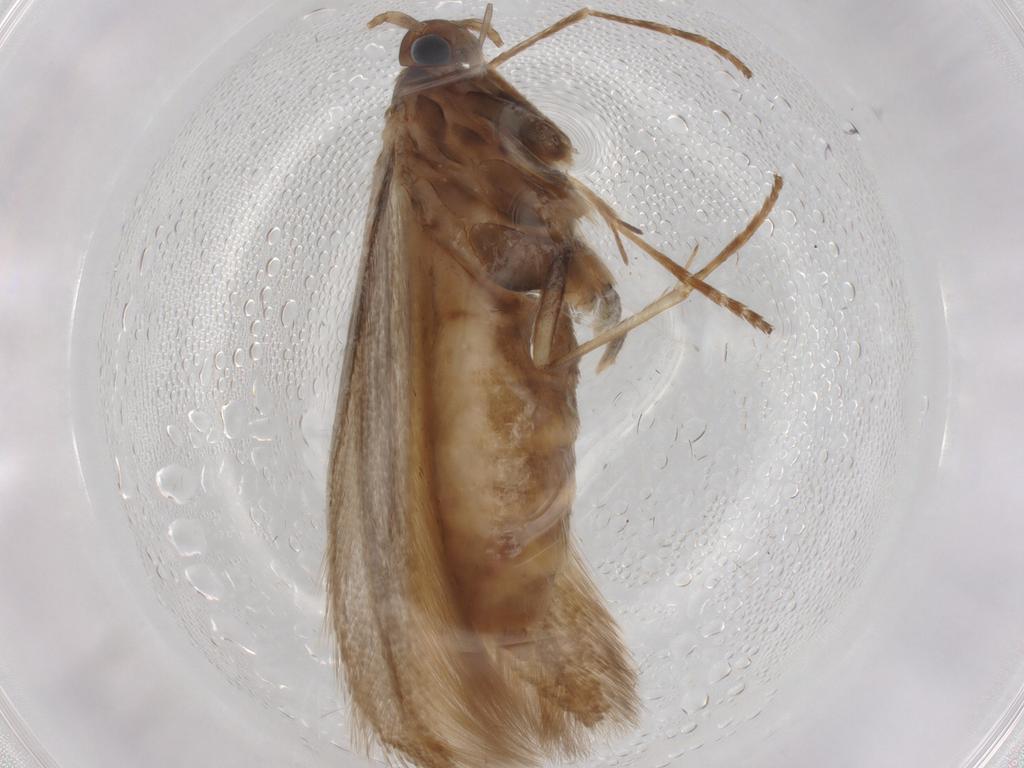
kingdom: Animalia
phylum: Arthropoda
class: Insecta
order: Lepidoptera
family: Coleophoridae
